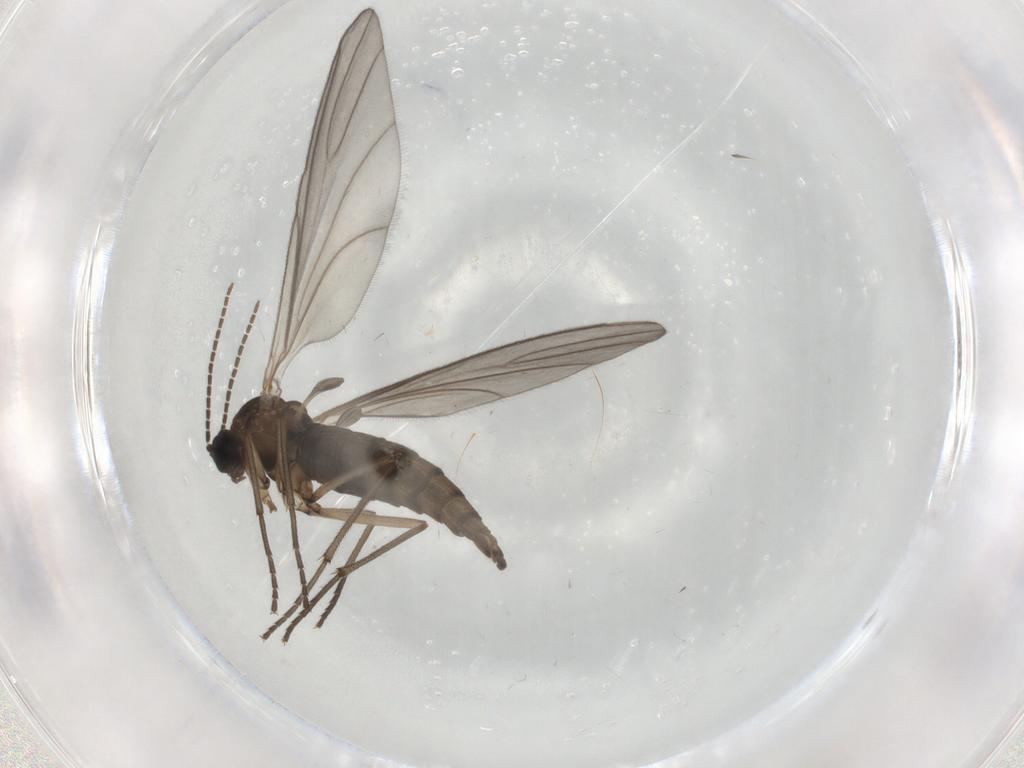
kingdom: Animalia
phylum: Arthropoda
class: Insecta
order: Diptera
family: Sciaridae
